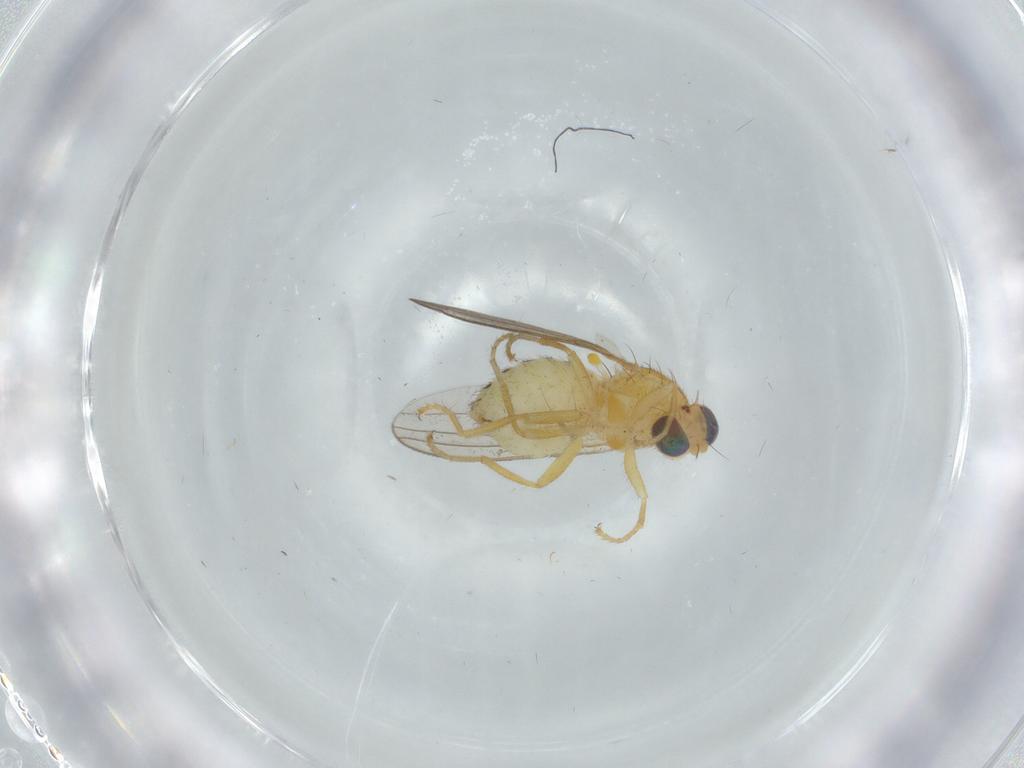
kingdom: Animalia
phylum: Arthropoda
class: Insecta
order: Diptera
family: Chyromyidae
